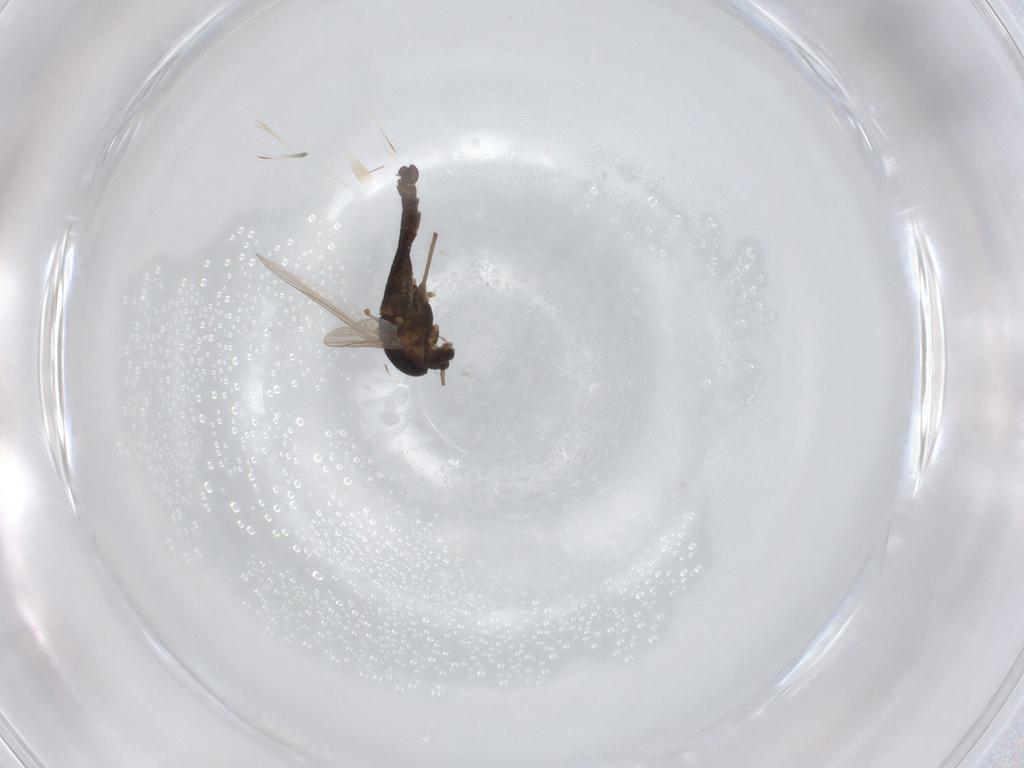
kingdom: Animalia
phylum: Arthropoda
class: Insecta
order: Diptera
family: Chironomidae
